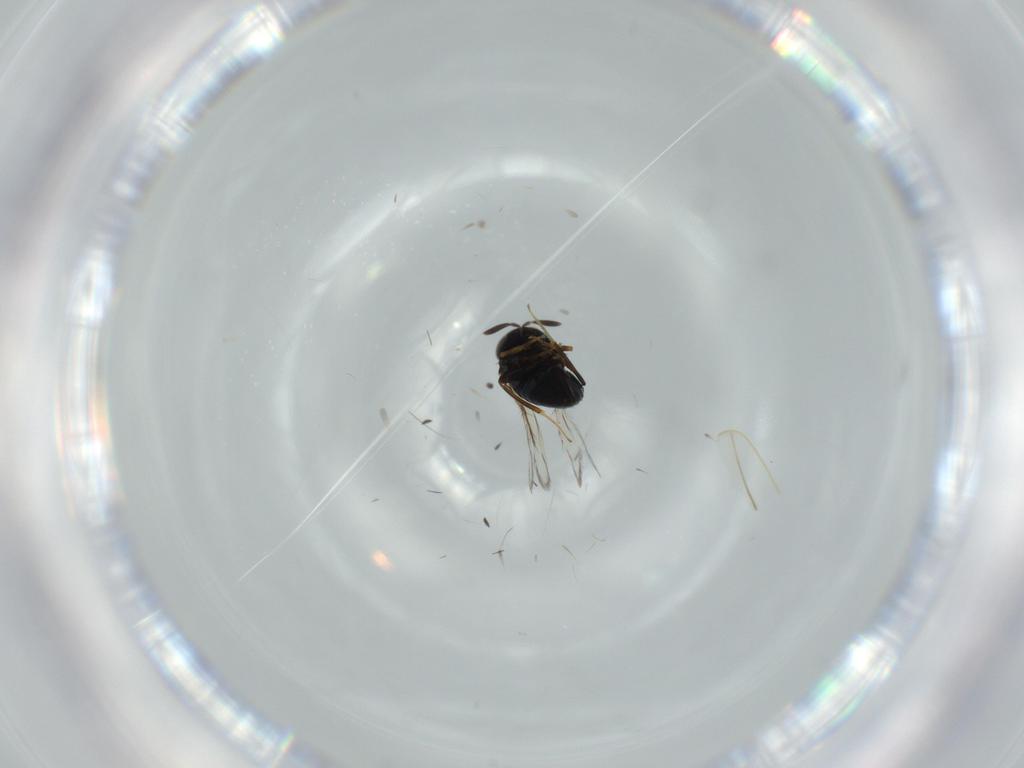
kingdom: Animalia
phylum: Arthropoda
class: Insecta
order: Hymenoptera
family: Signiphoridae
